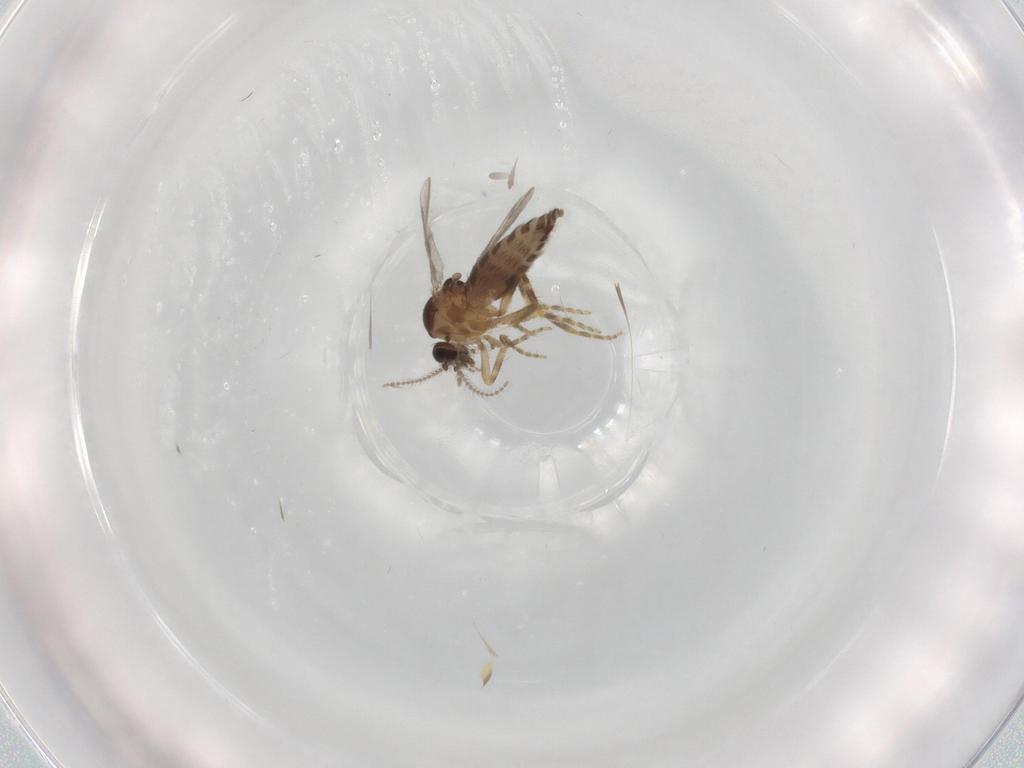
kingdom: Animalia
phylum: Arthropoda
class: Insecta
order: Diptera
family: Ceratopogonidae
